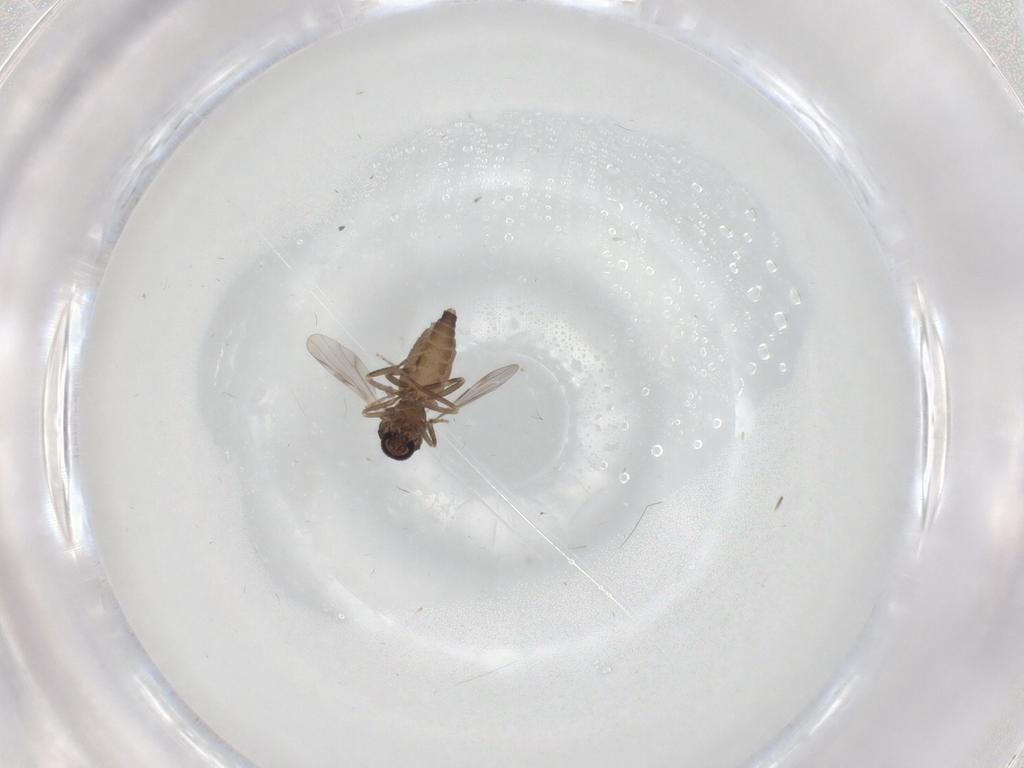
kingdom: Animalia
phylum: Arthropoda
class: Insecta
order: Diptera
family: Ceratopogonidae
